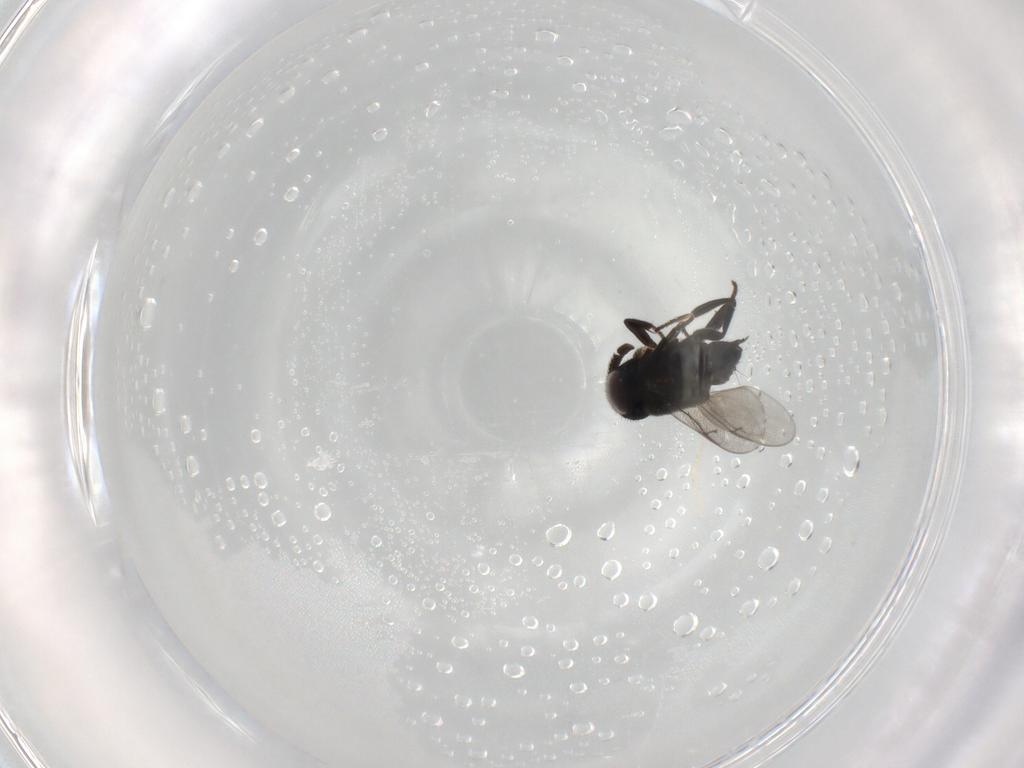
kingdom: Animalia
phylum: Arthropoda
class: Insecta
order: Hymenoptera
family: Encyrtidae
